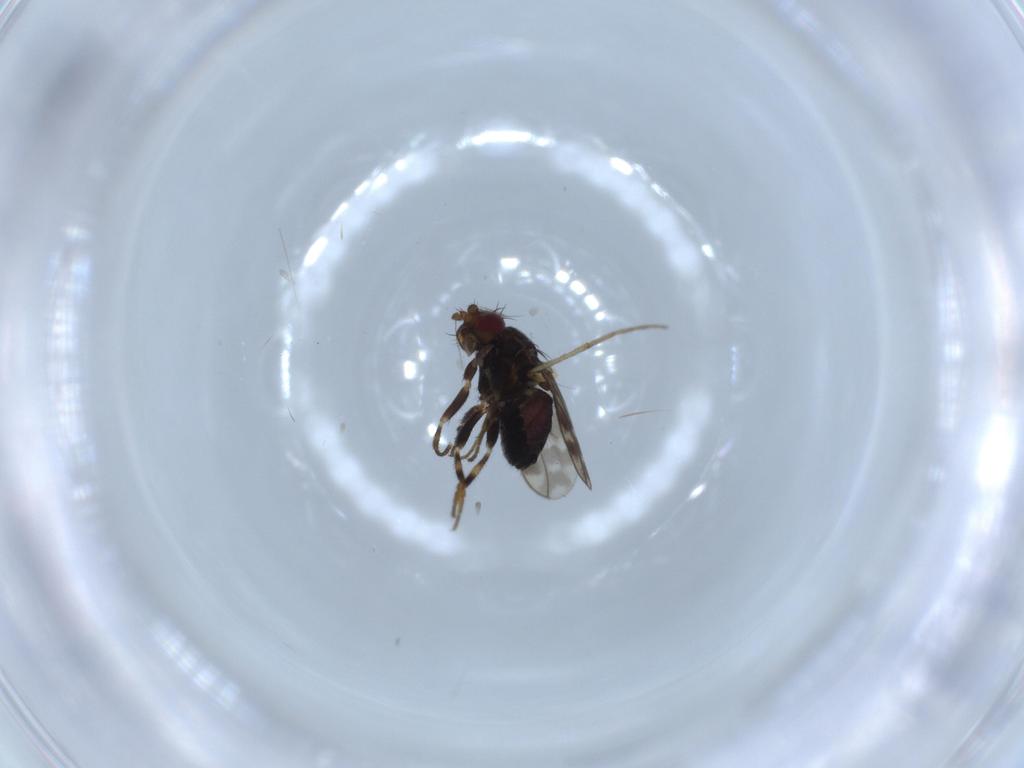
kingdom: Animalia
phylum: Arthropoda
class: Insecta
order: Diptera
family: Sphaeroceridae
